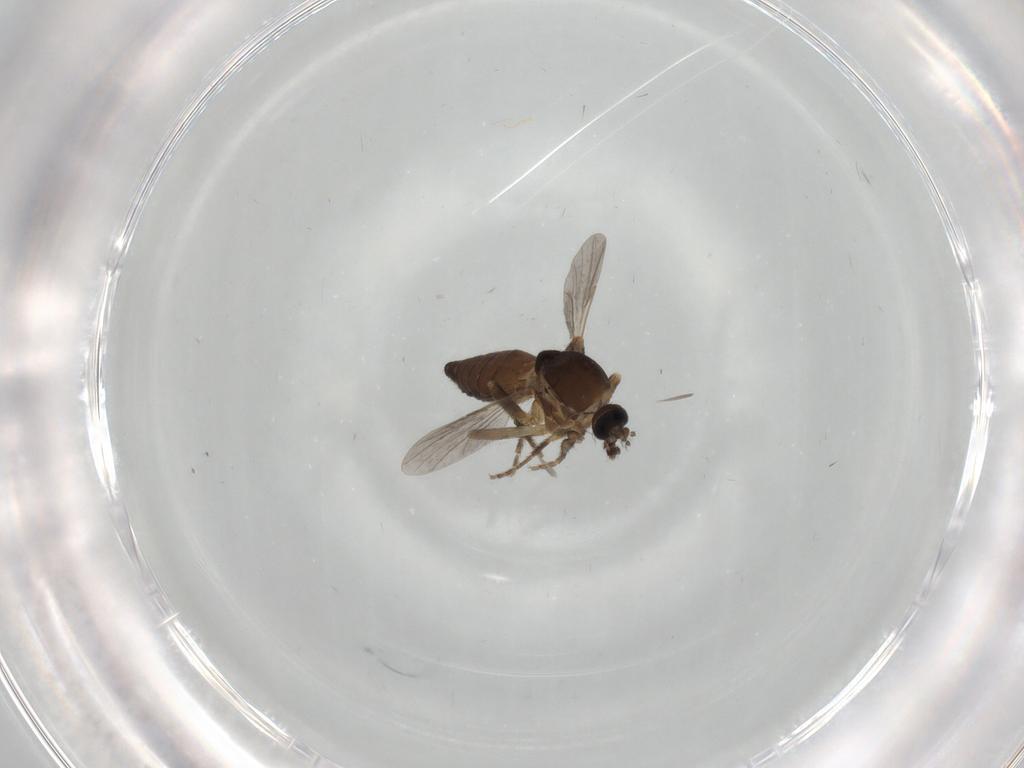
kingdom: Animalia
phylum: Arthropoda
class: Insecta
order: Diptera
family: Ceratopogonidae
